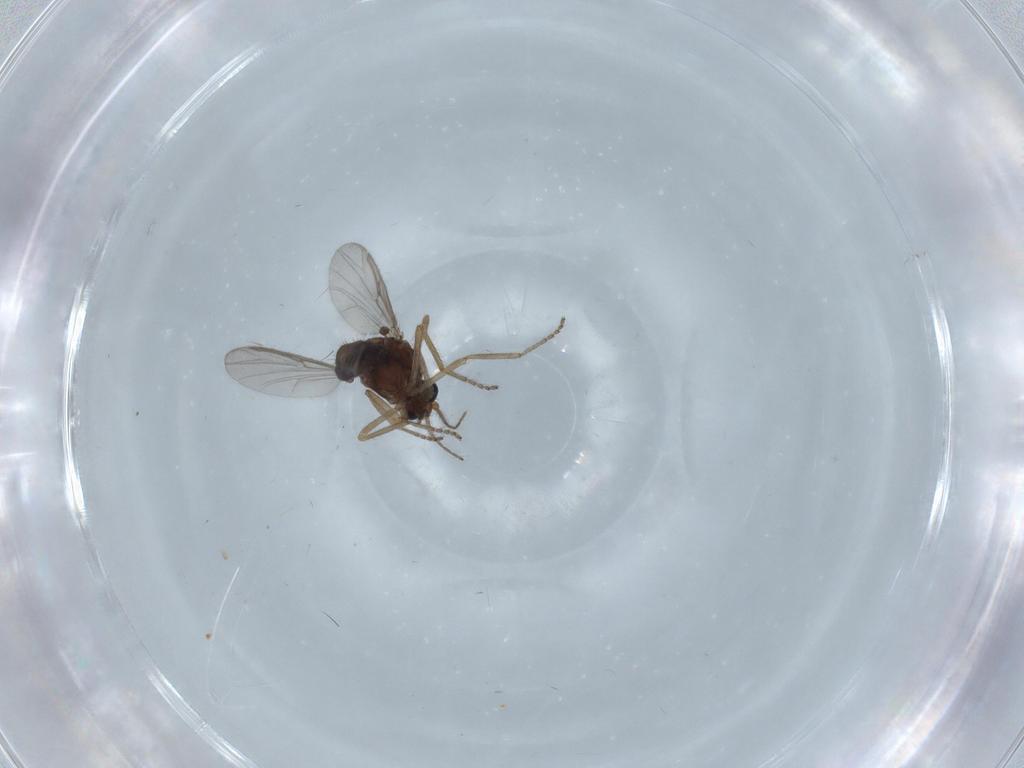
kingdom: Animalia
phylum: Arthropoda
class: Insecta
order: Diptera
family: Ceratopogonidae
